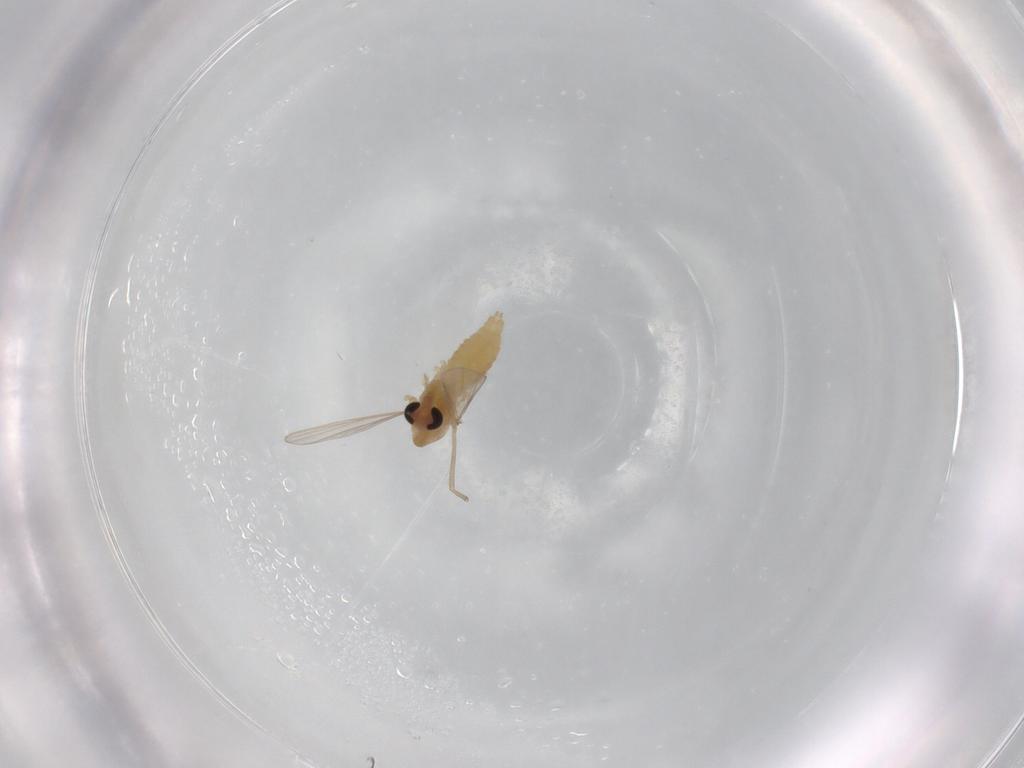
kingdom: Animalia
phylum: Arthropoda
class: Insecta
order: Diptera
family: Chironomidae
